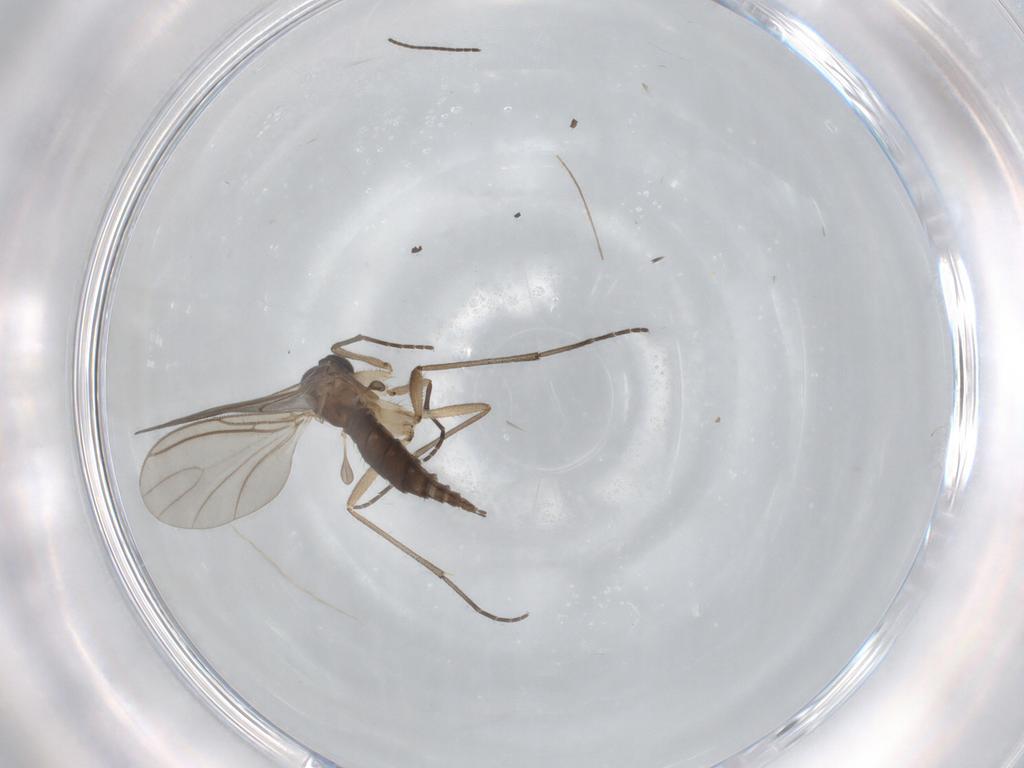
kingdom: Animalia
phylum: Arthropoda
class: Insecta
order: Diptera
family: Sciaridae
